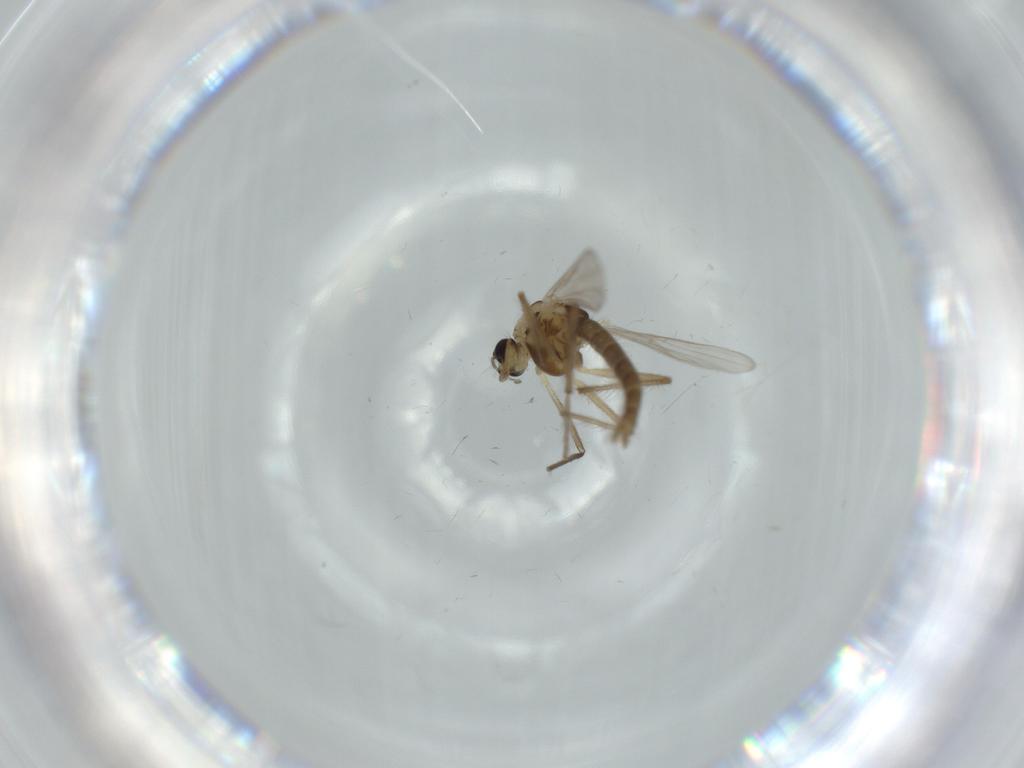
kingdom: Animalia
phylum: Arthropoda
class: Insecta
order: Diptera
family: Chironomidae
